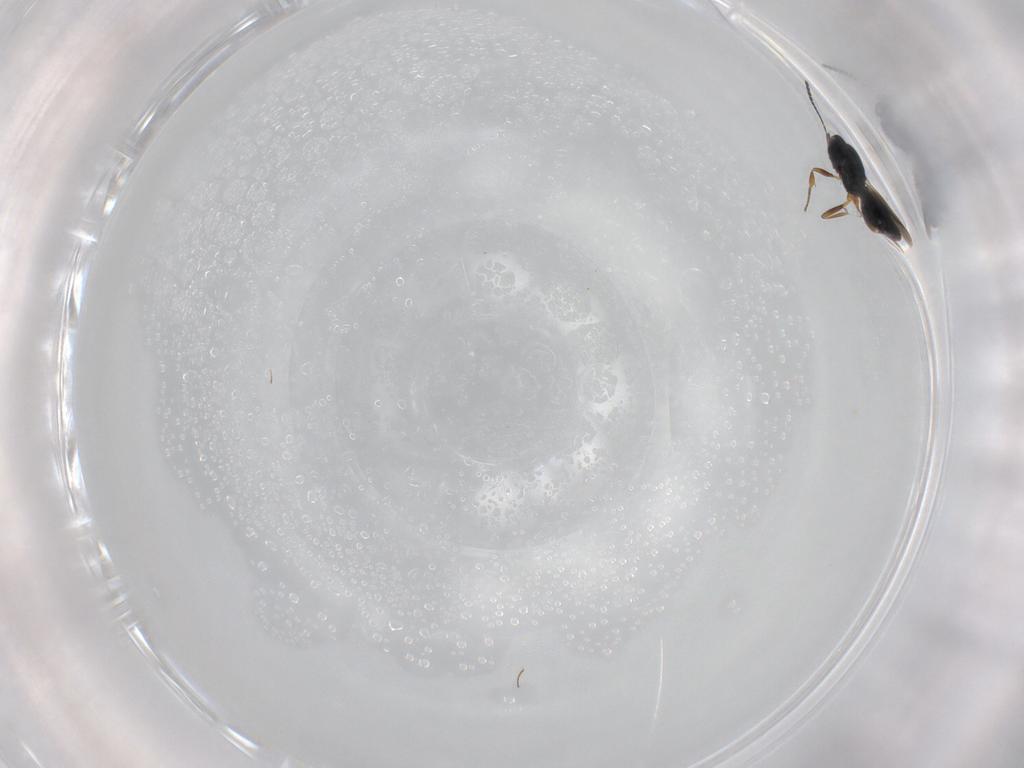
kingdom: Animalia
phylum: Arthropoda
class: Insecta
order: Hymenoptera
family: Scelionidae
